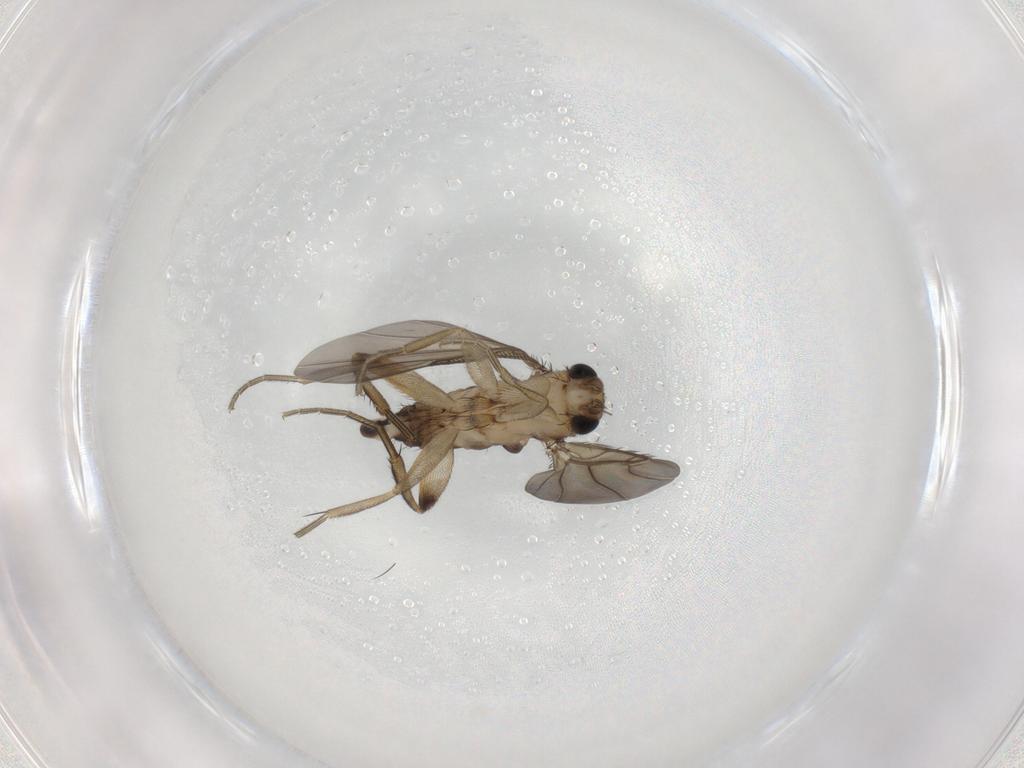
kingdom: Animalia
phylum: Arthropoda
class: Insecta
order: Diptera
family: Phoridae
